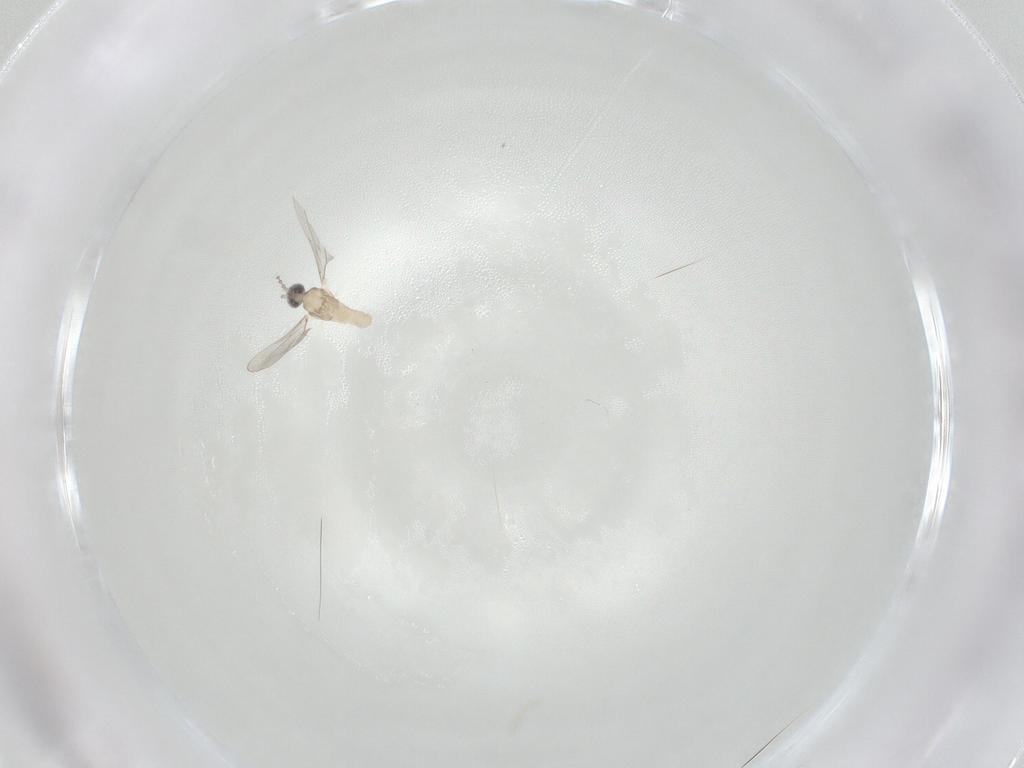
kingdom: Animalia
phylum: Arthropoda
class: Insecta
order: Diptera
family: Cecidomyiidae
